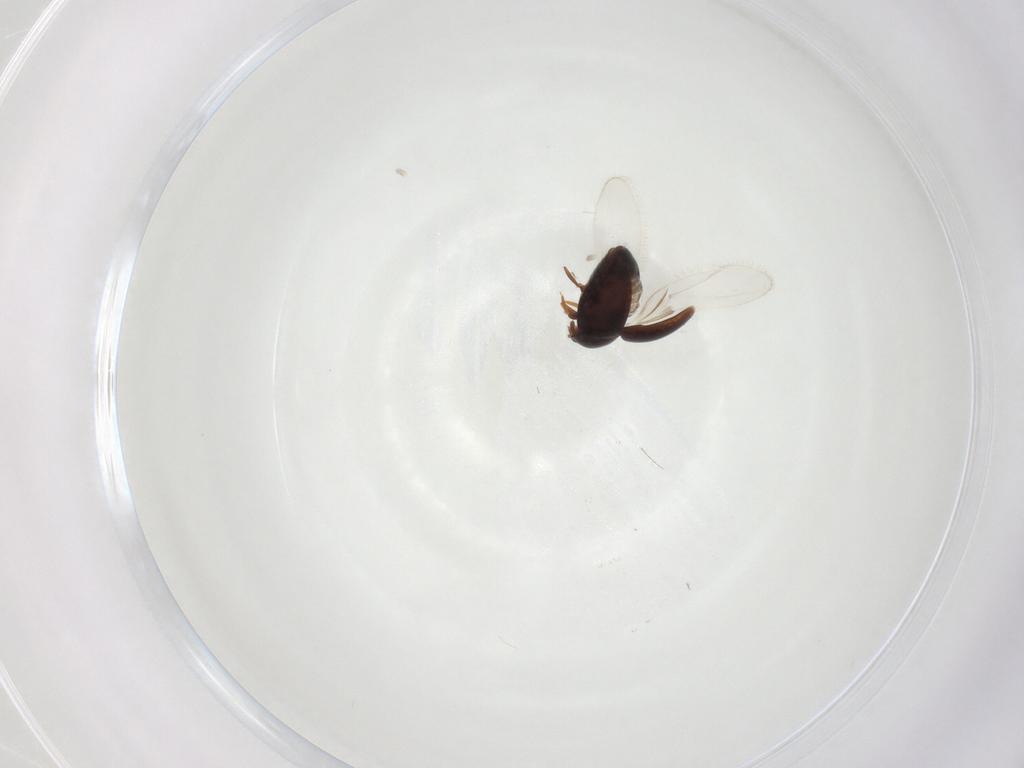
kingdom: Animalia
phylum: Arthropoda
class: Insecta
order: Coleoptera
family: Corylophidae
